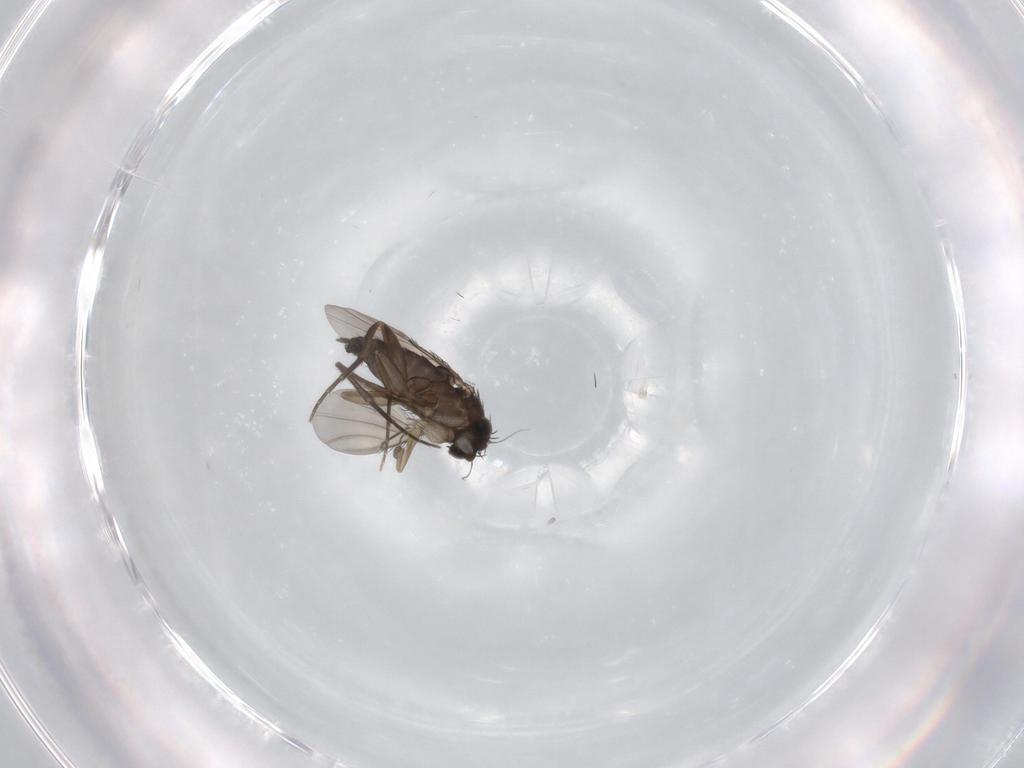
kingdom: Animalia
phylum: Arthropoda
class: Insecta
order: Diptera
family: Phoridae
